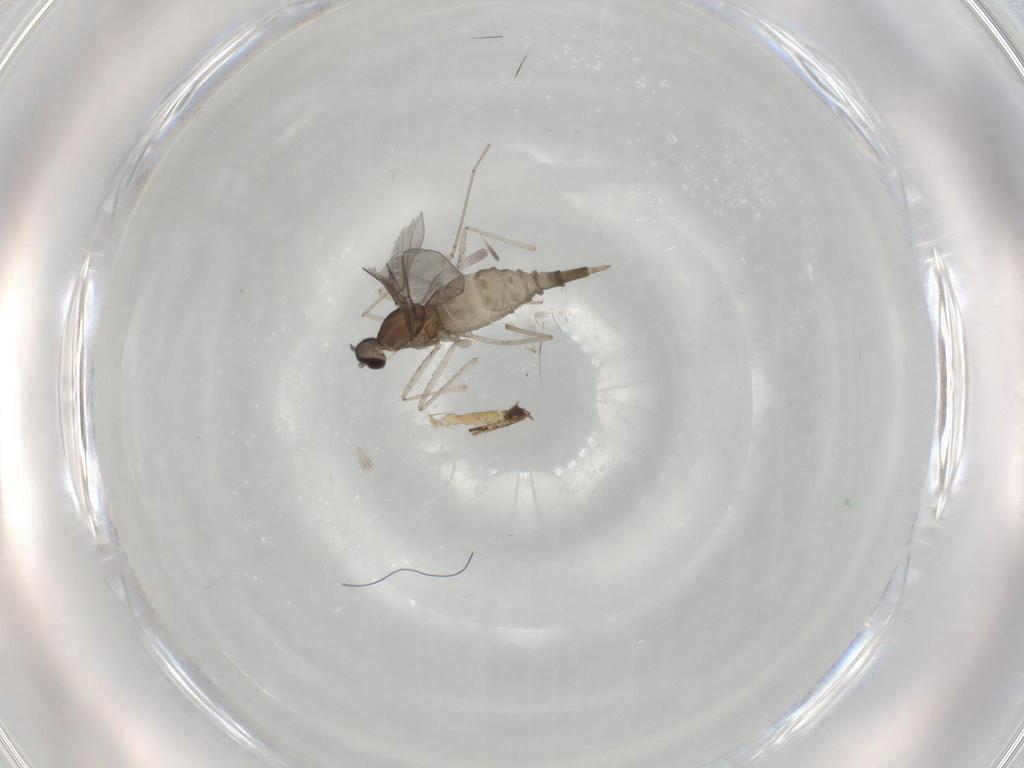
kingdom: Animalia
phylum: Arthropoda
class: Insecta
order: Diptera
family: Cecidomyiidae
